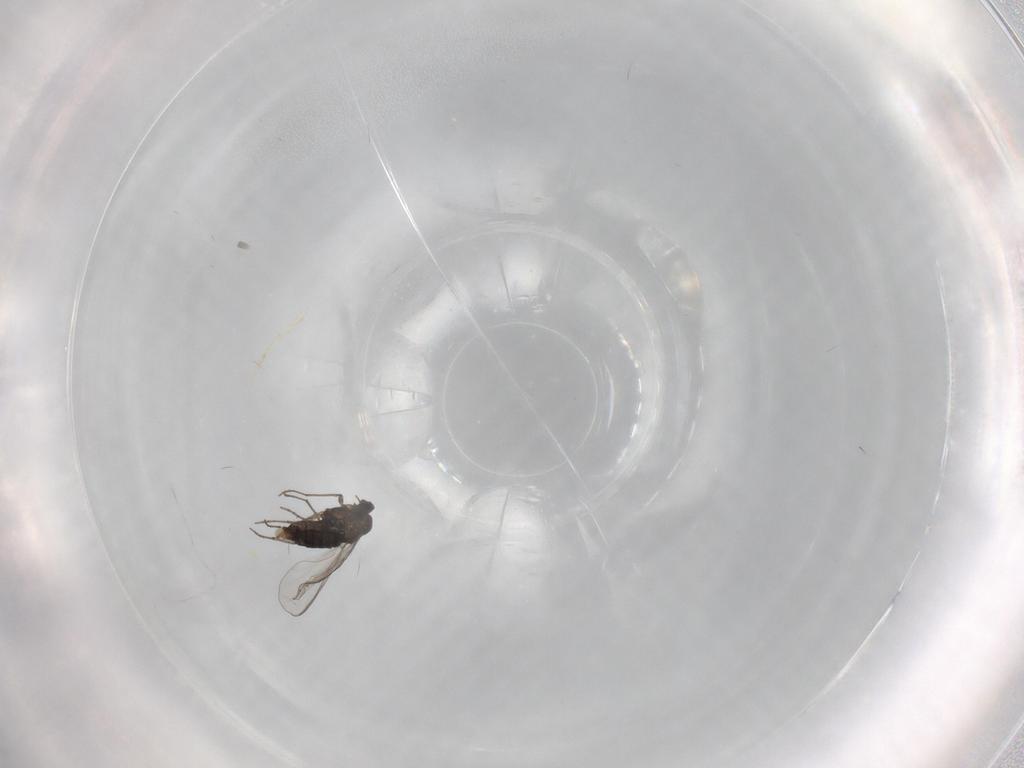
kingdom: Animalia
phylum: Arthropoda
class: Insecta
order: Diptera
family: Chironomidae
